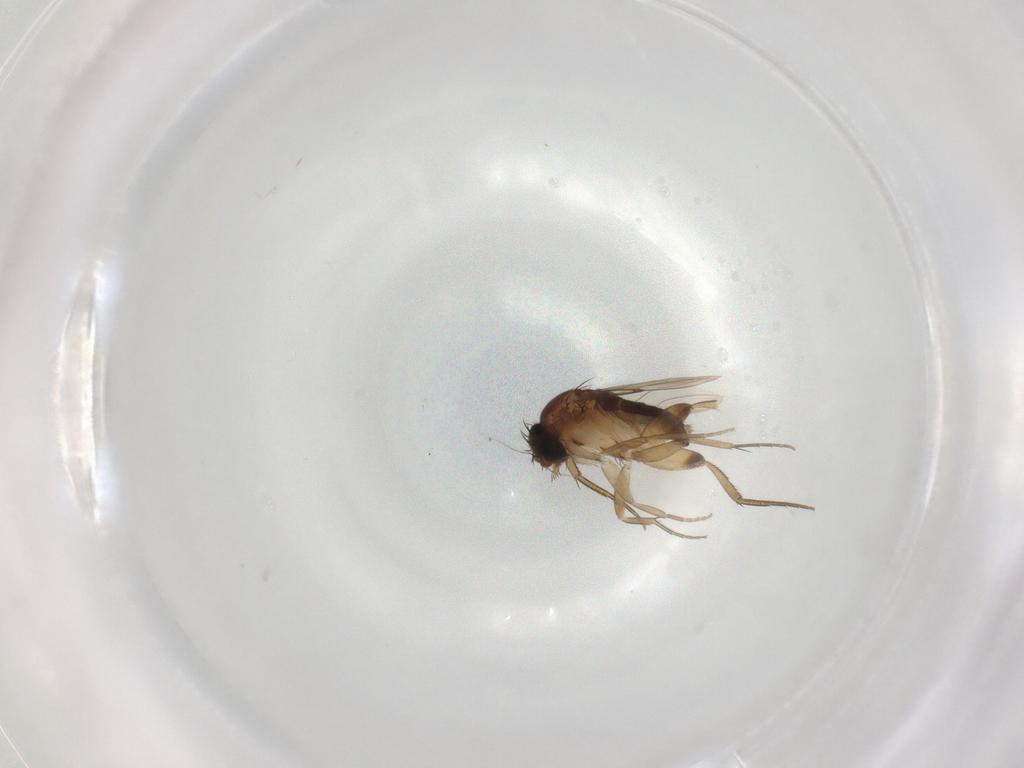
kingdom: Animalia
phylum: Arthropoda
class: Insecta
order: Diptera
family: Phoridae
